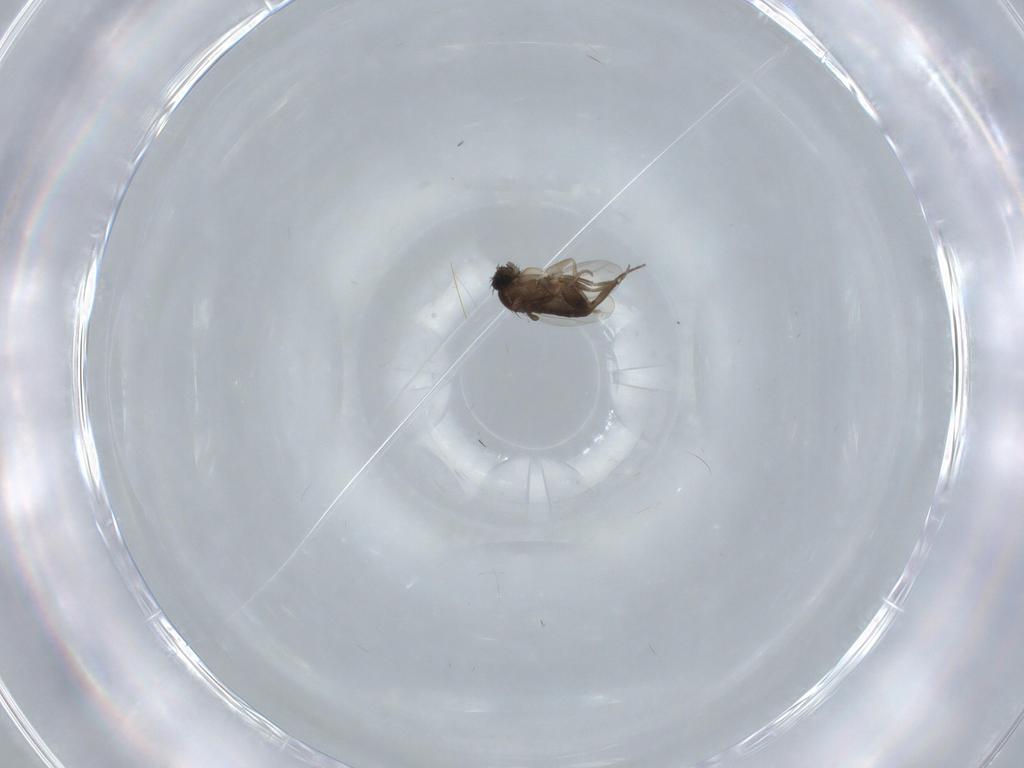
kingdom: Animalia
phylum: Arthropoda
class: Insecta
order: Diptera
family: Phoridae
